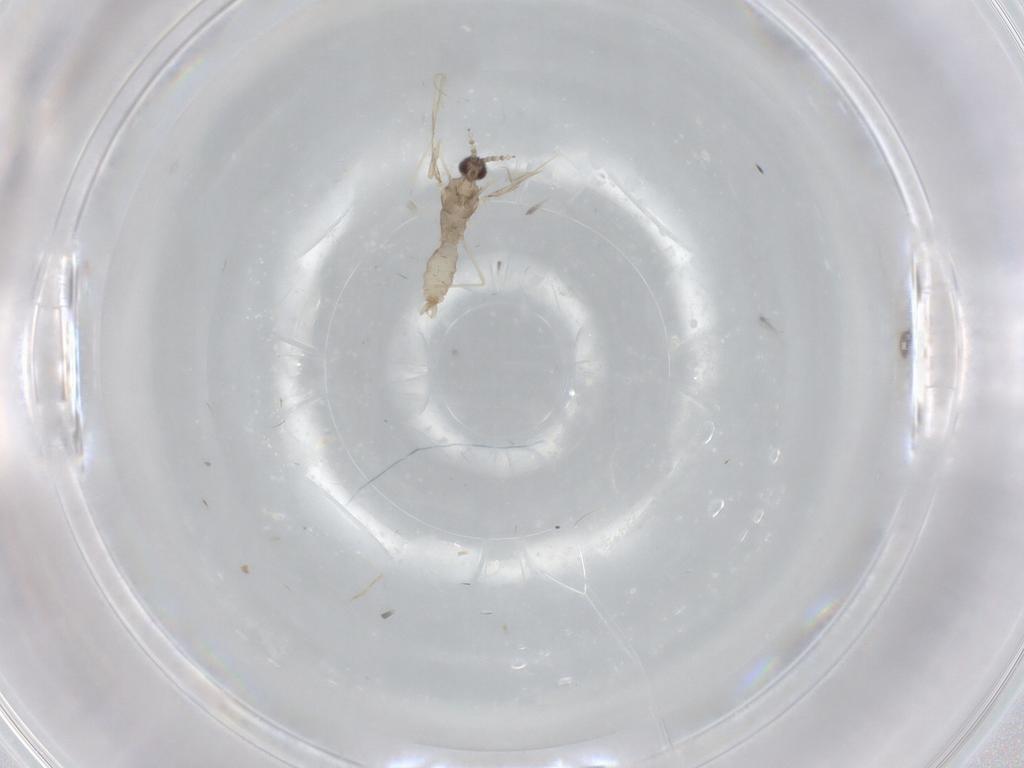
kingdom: Animalia
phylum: Arthropoda
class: Insecta
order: Diptera
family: Cecidomyiidae
